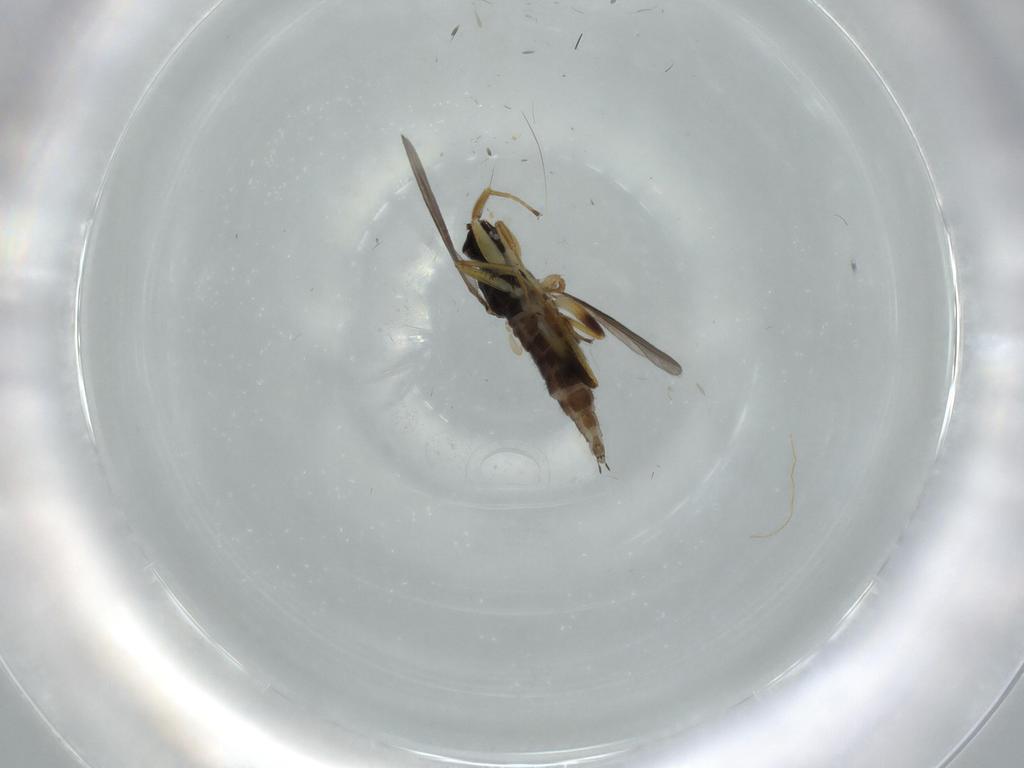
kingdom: Animalia
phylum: Arthropoda
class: Insecta
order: Diptera
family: Hybotidae
